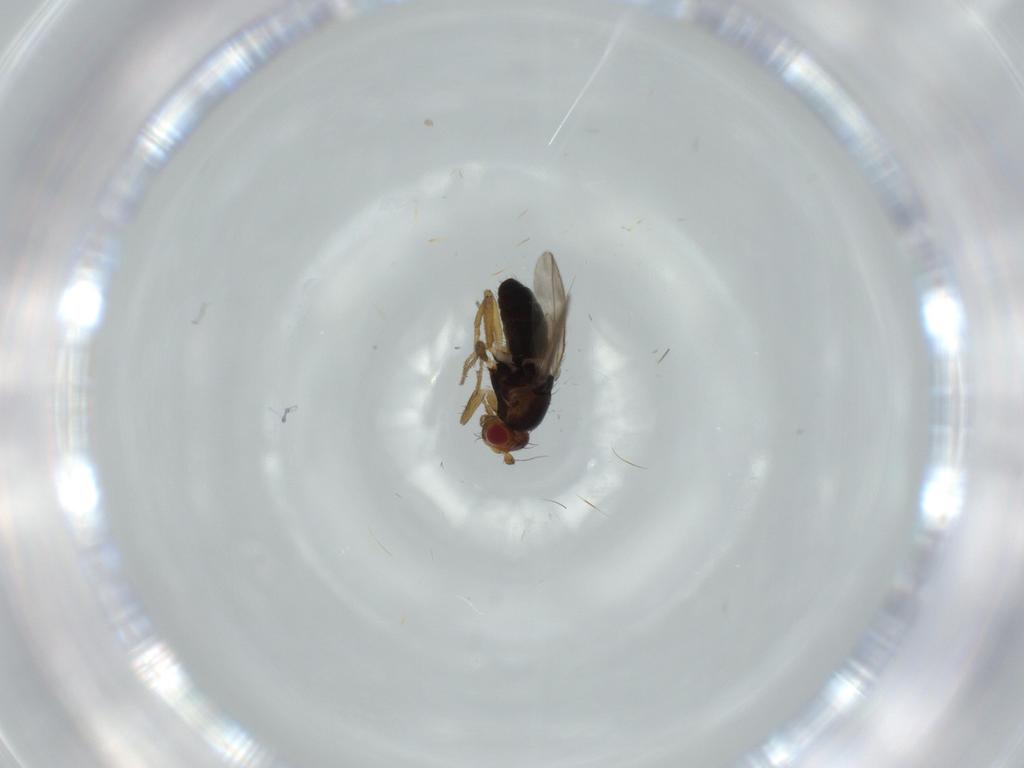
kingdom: Animalia
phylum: Arthropoda
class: Insecta
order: Diptera
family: Sphaeroceridae
